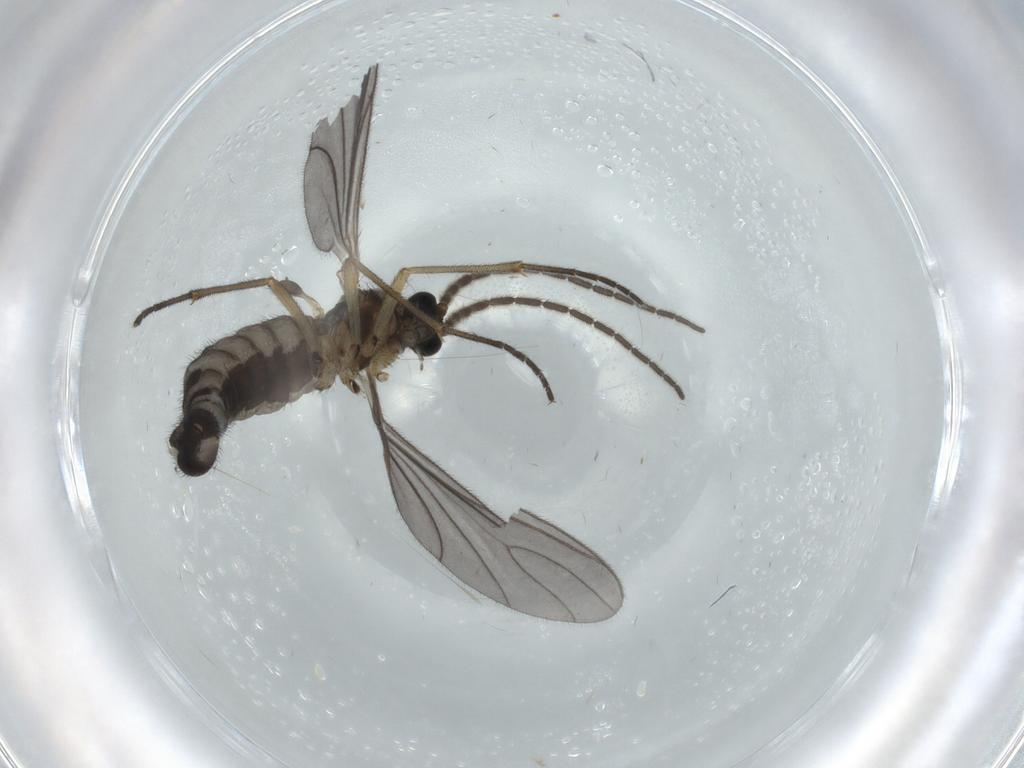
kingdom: Animalia
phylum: Arthropoda
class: Insecta
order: Diptera
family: Sciaridae
